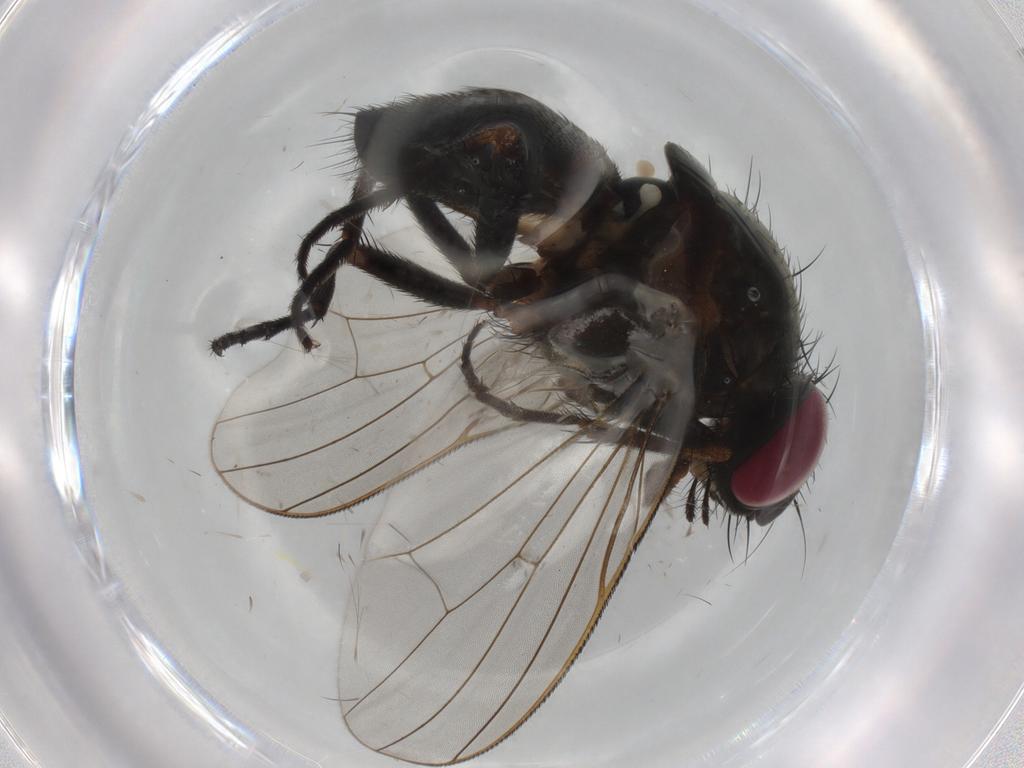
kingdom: Animalia
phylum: Arthropoda
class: Insecta
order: Diptera
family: Fannia
